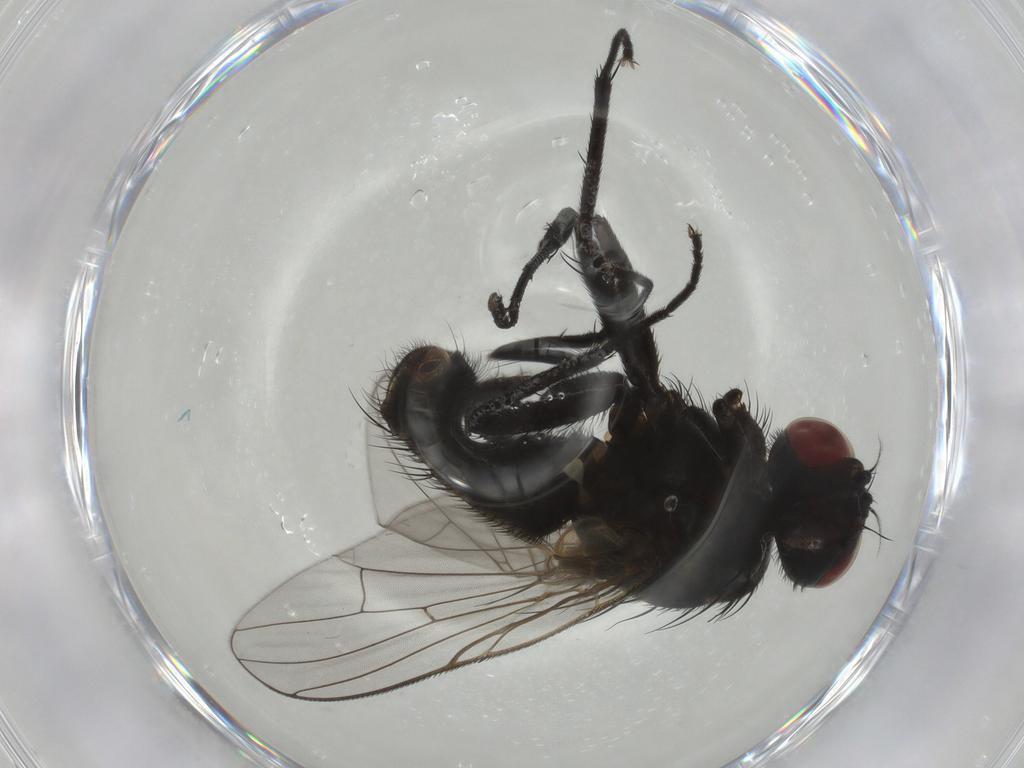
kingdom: Animalia
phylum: Arthropoda
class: Insecta
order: Diptera
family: Muscidae
